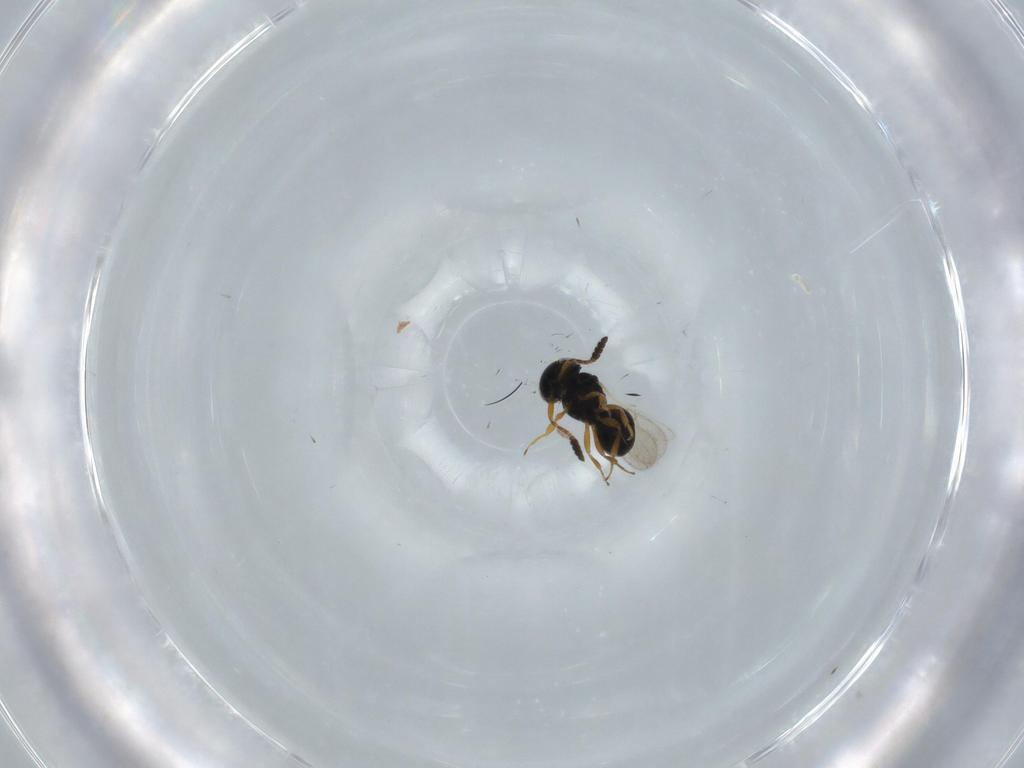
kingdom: Animalia
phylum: Arthropoda
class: Insecta
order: Hymenoptera
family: Scelionidae
